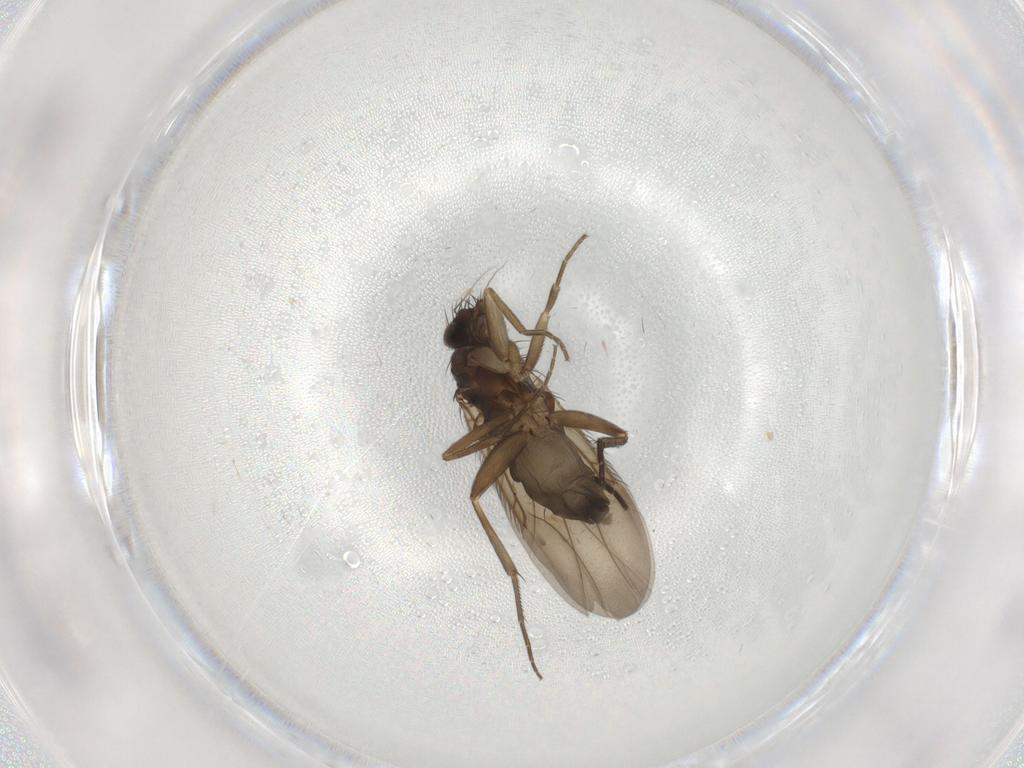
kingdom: Animalia
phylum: Arthropoda
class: Insecta
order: Diptera
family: Phoridae
